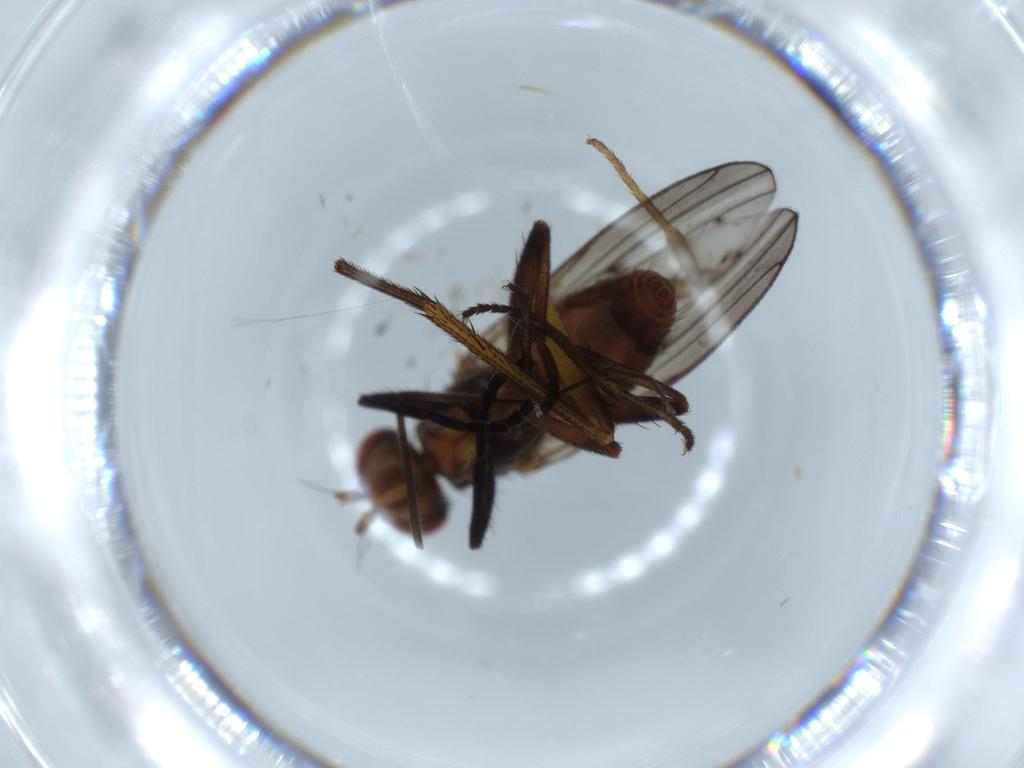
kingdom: Animalia
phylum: Arthropoda
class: Insecta
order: Diptera
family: Anthomyiidae
